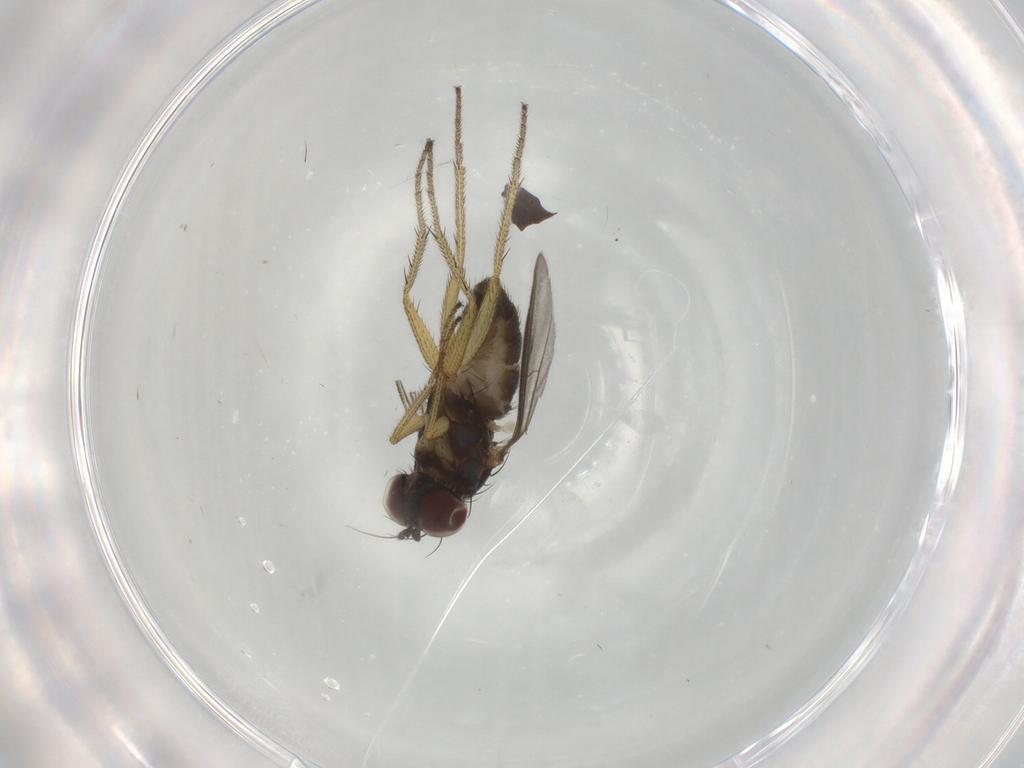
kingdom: Animalia
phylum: Arthropoda
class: Insecta
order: Diptera
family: Dolichopodidae
